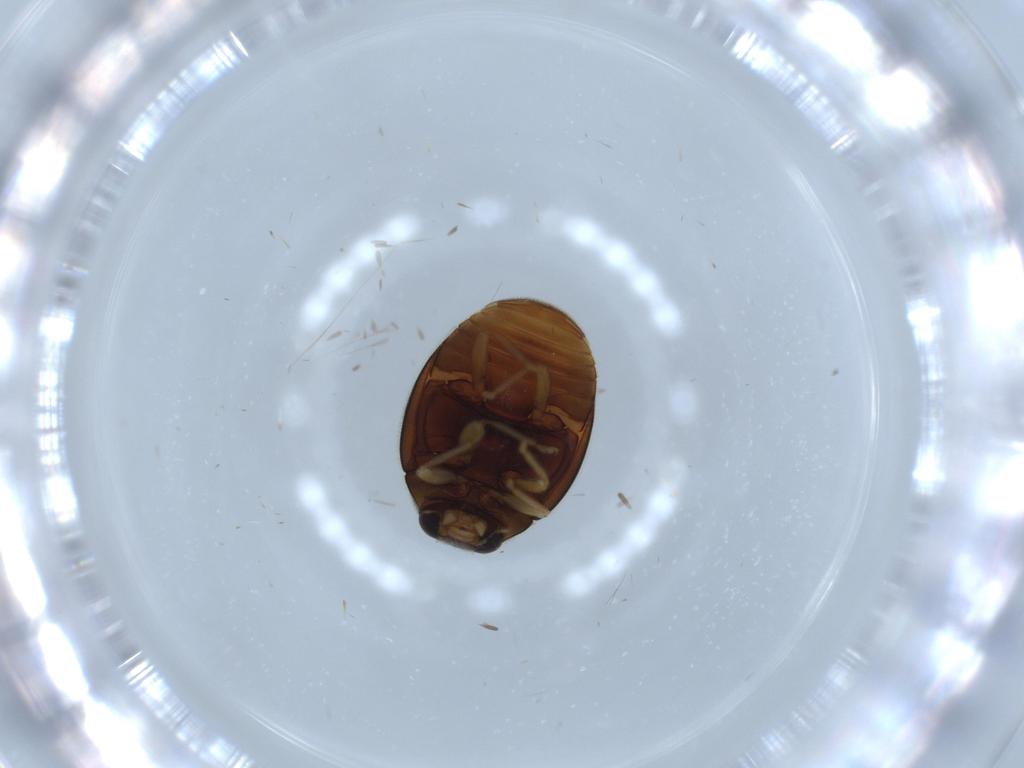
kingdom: Animalia
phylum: Arthropoda
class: Insecta
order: Coleoptera
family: Coccinellidae
